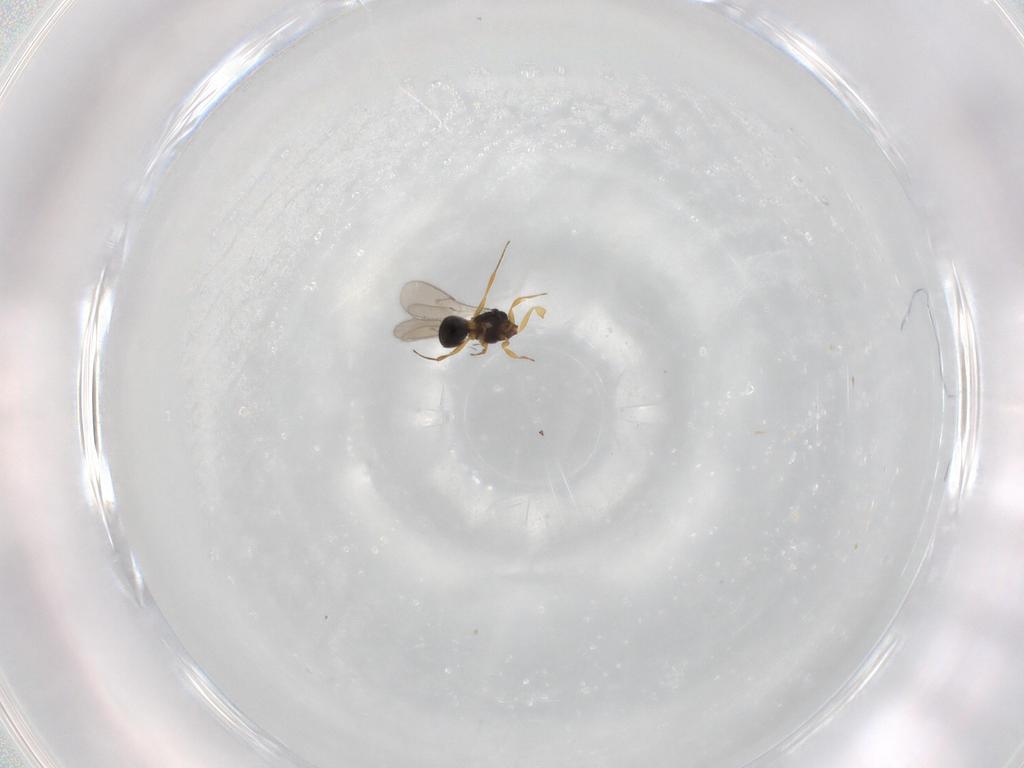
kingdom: Animalia
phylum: Arthropoda
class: Insecta
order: Hymenoptera
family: Scelionidae
